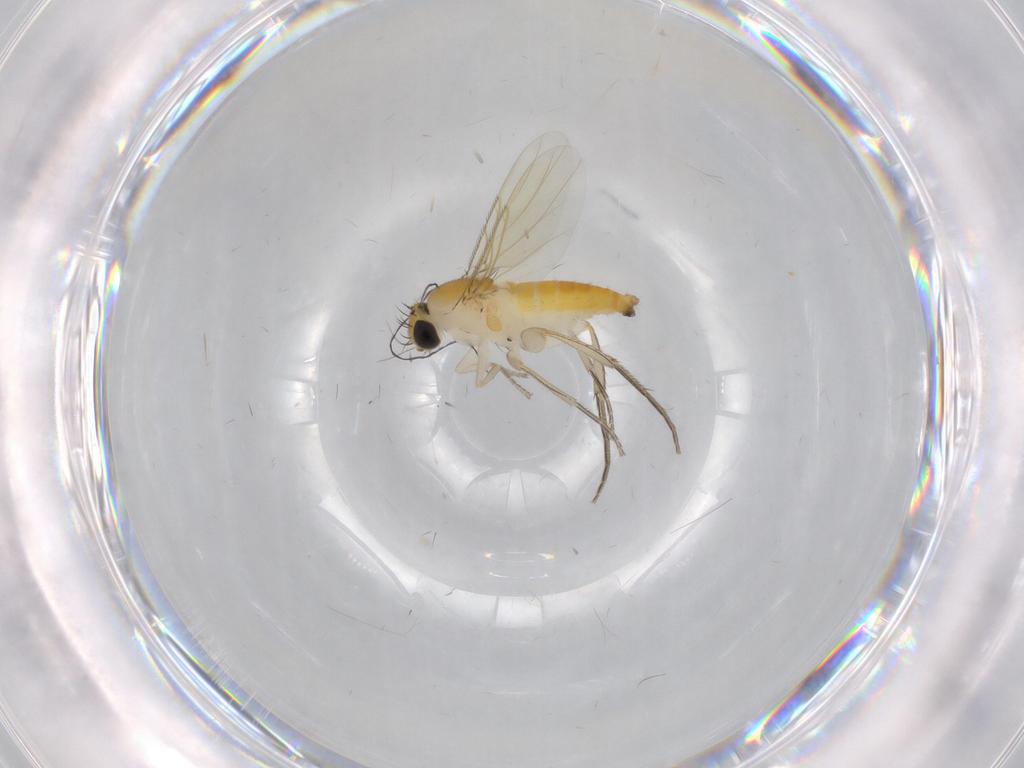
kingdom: Animalia
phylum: Arthropoda
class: Insecta
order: Diptera
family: Phoridae
